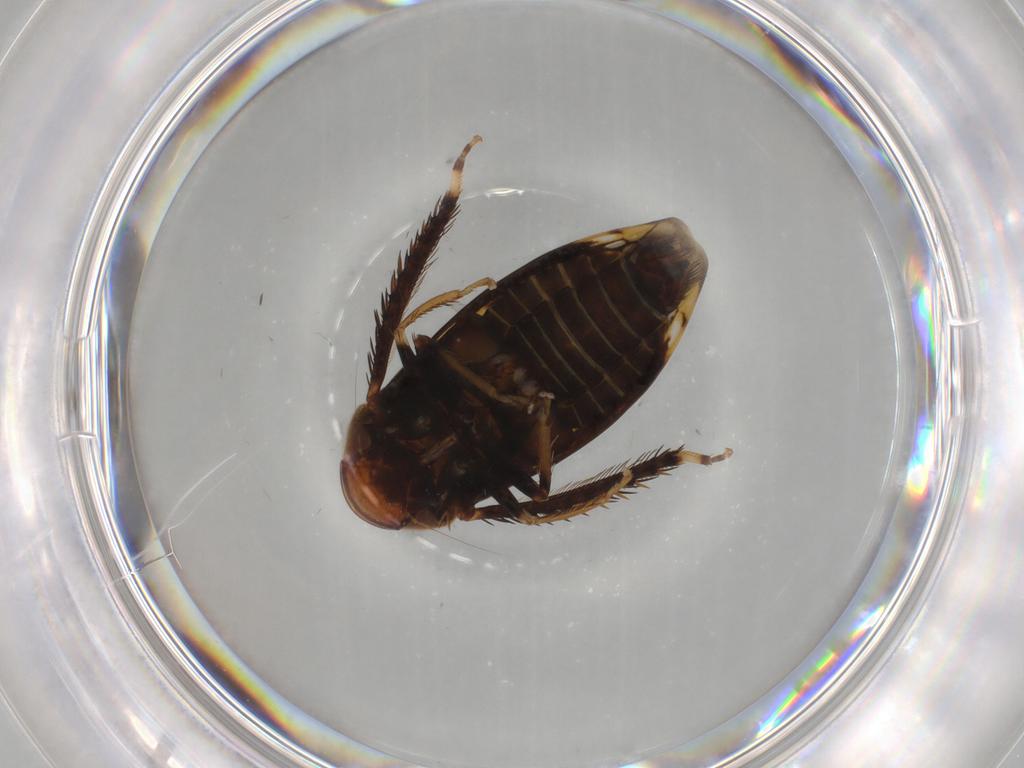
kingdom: Animalia
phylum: Arthropoda
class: Insecta
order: Hemiptera
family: Cicadellidae
